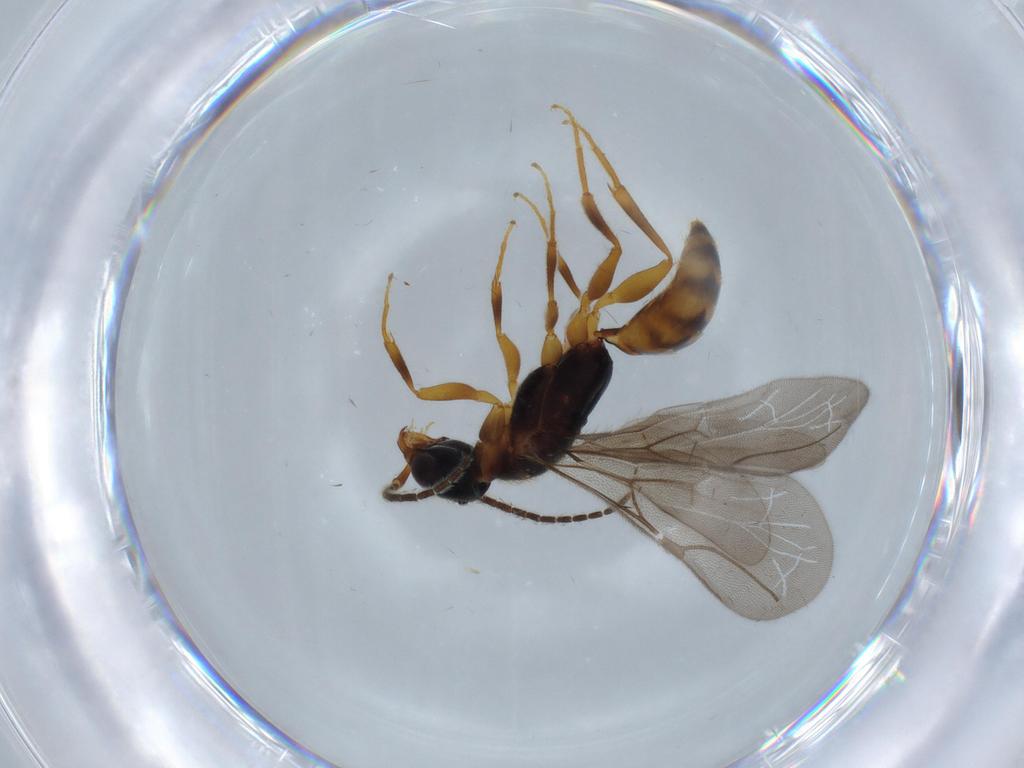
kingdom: Animalia
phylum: Arthropoda
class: Insecta
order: Hymenoptera
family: Bethylidae
